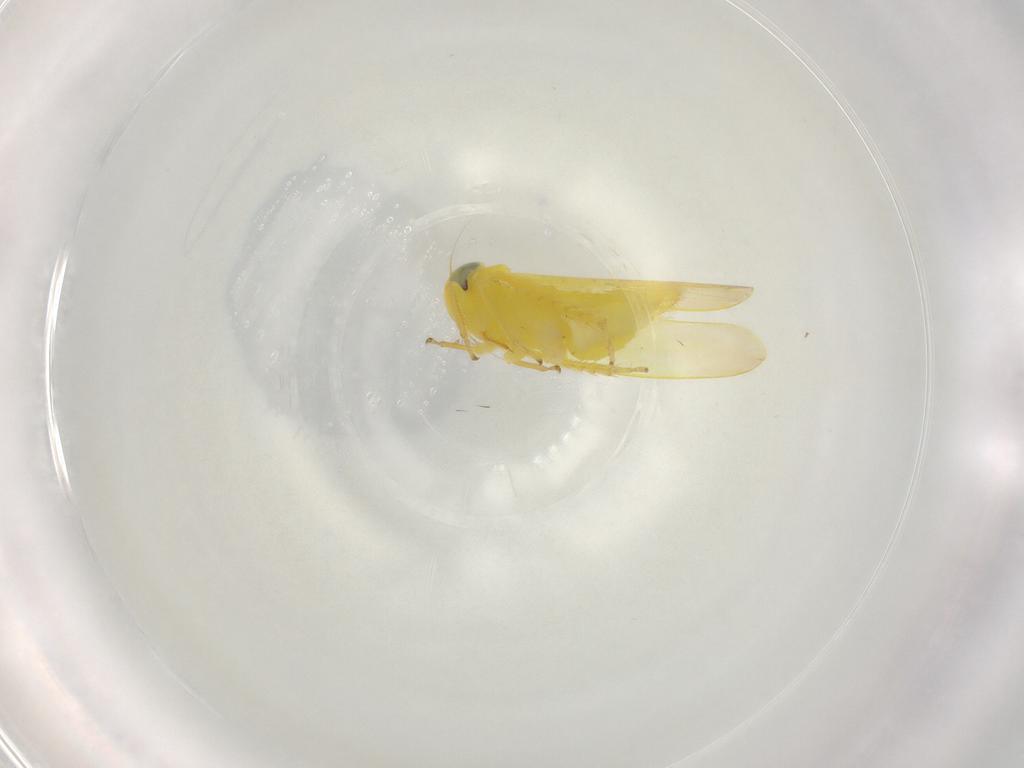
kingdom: Animalia
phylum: Arthropoda
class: Insecta
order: Hemiptera
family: Cicadellidae
